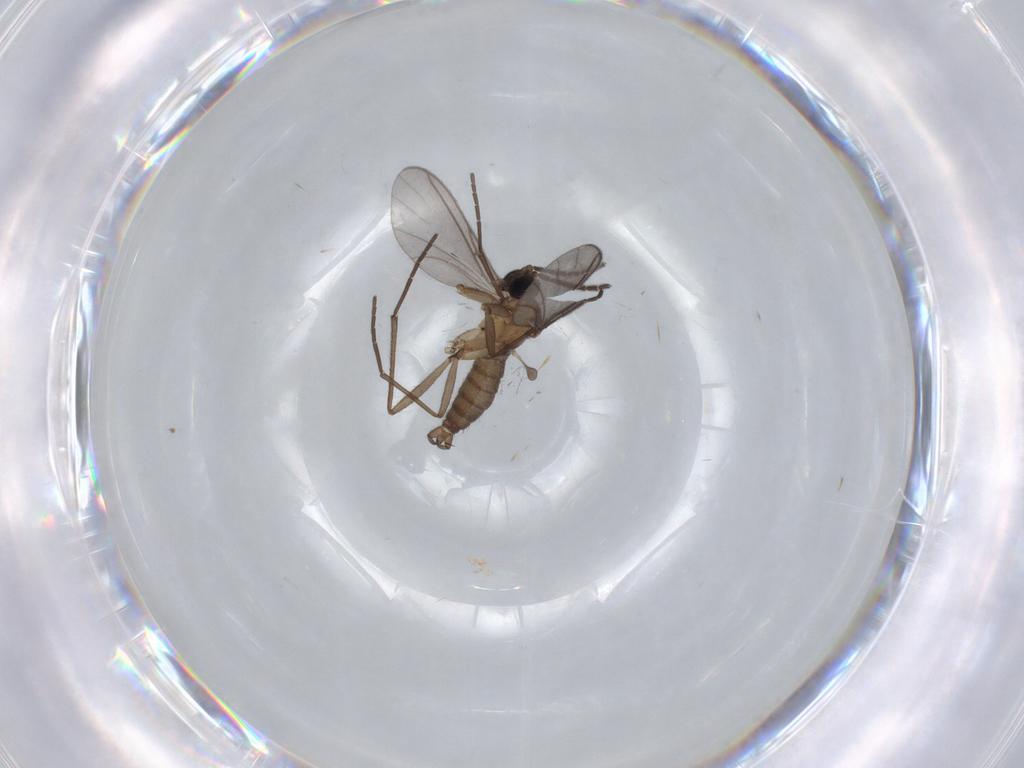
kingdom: Animalia
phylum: Arthropoda
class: Insecta
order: Diptera
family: Sciaridae
